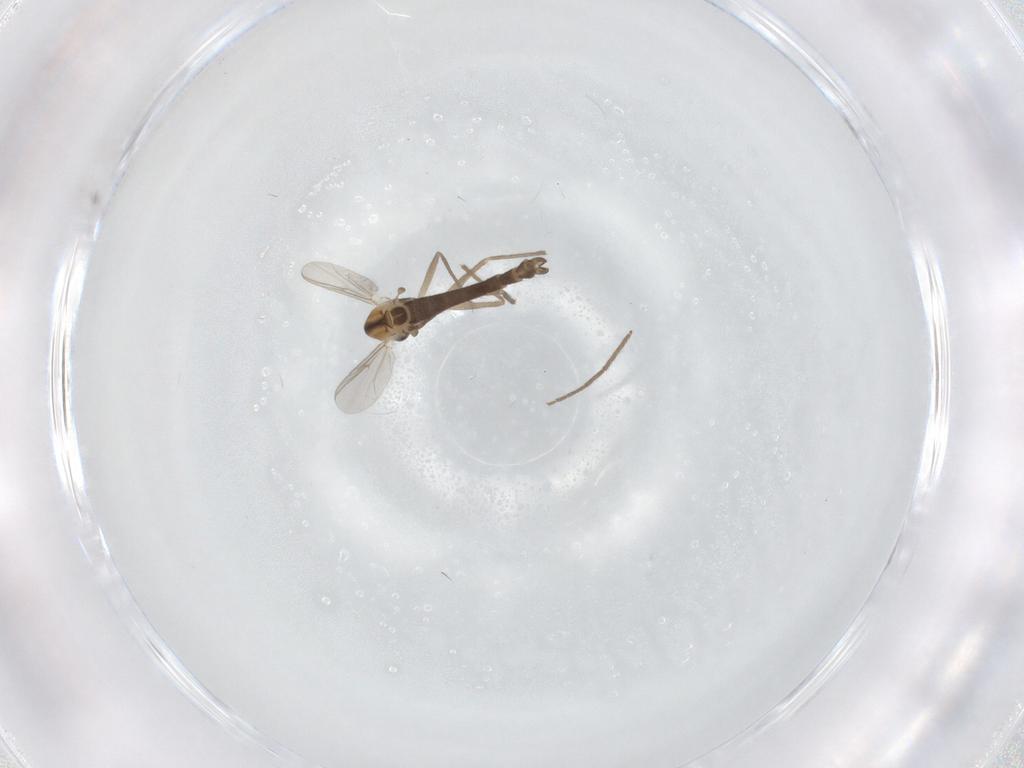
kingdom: Animalia
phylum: Arthropoda
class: Insecta
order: Diptera
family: Chironomidae
